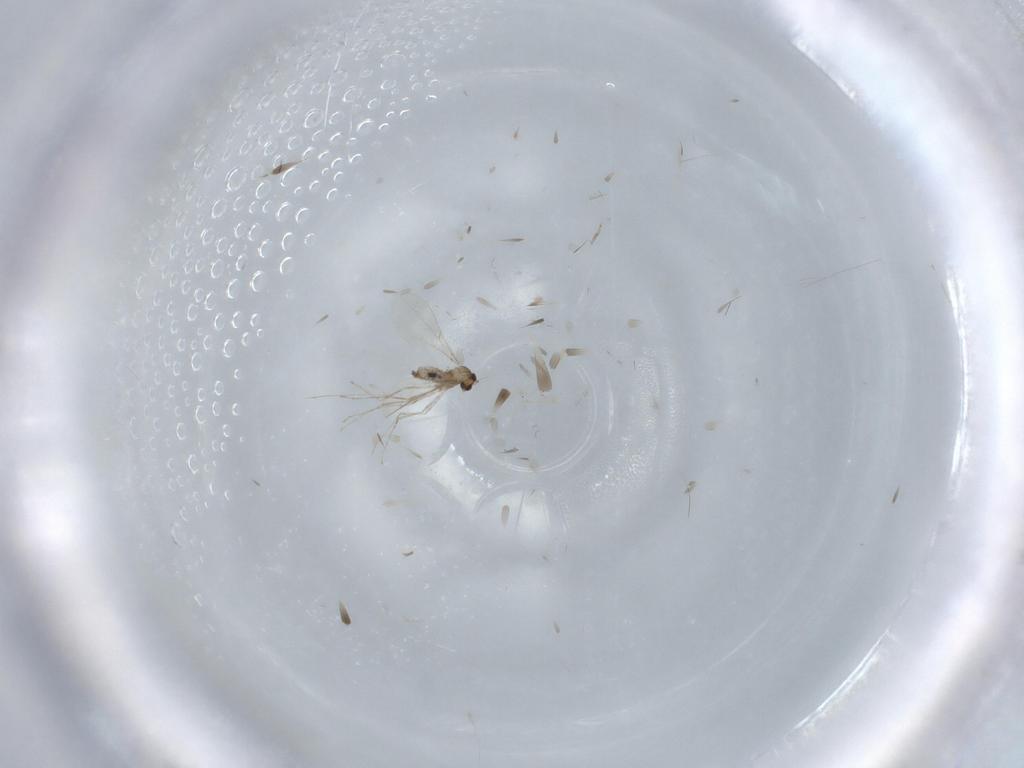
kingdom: Animalia
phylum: Arthropoda
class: Insecta
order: Diptera
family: Cecidomyiidae
